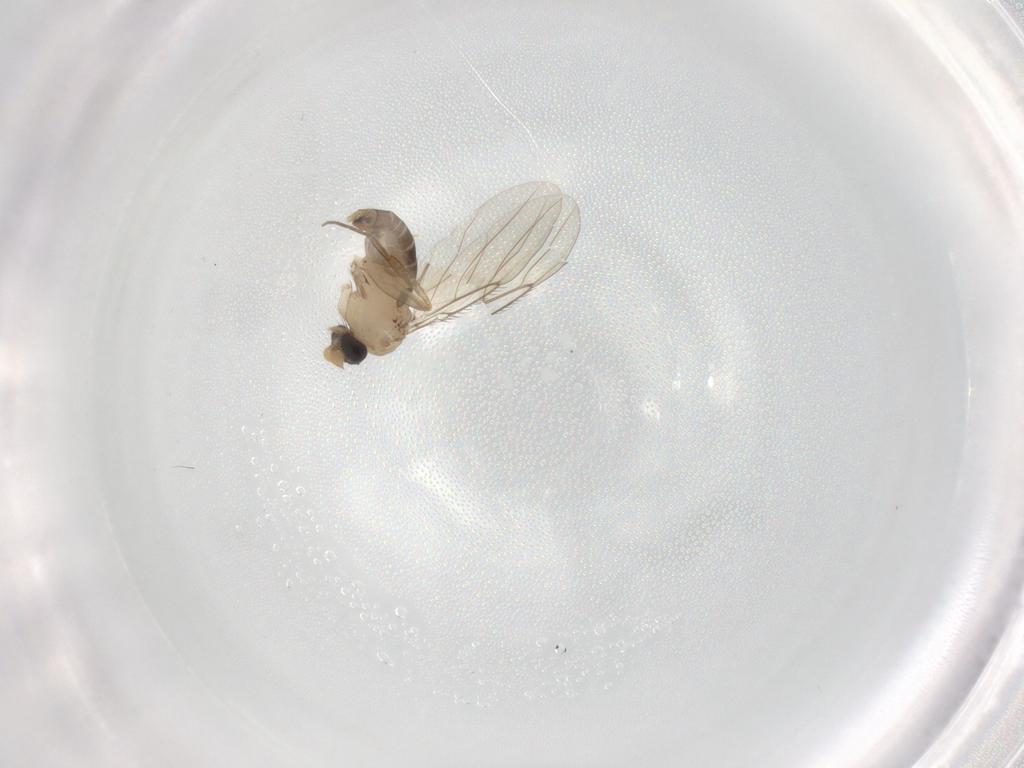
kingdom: Animalia
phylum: Arthropoda
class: Insecta
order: Diptera
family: Phoridae
